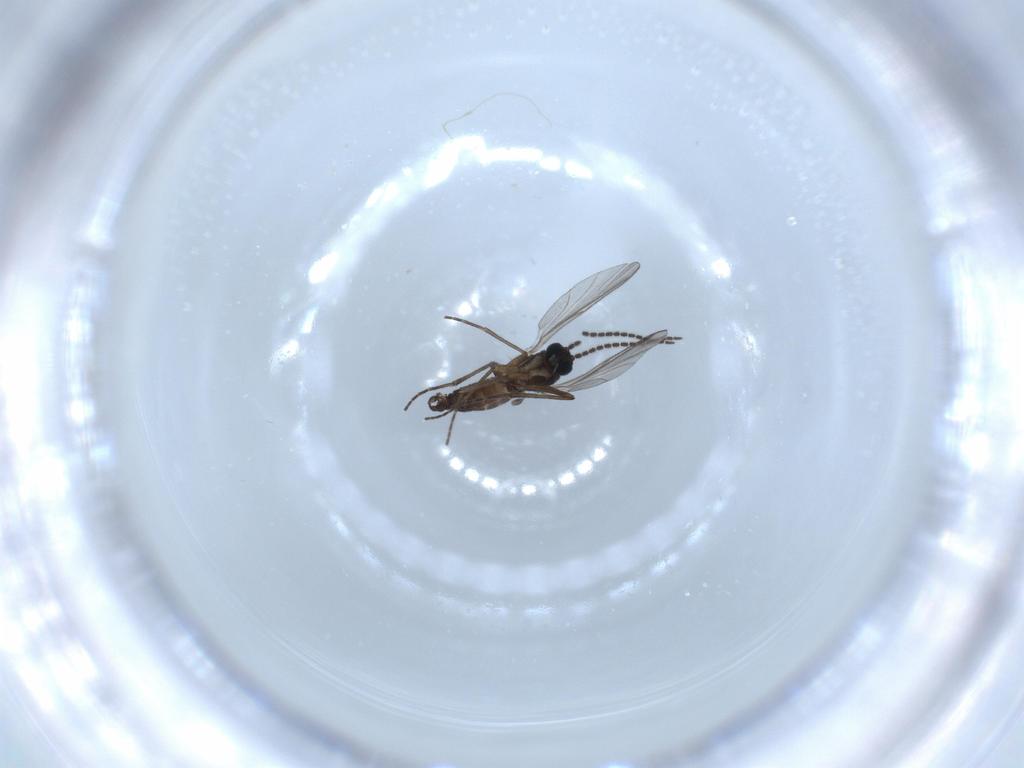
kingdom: Animalia
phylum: Arthropoda
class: Insecta
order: Diptera
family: Sciaridae
